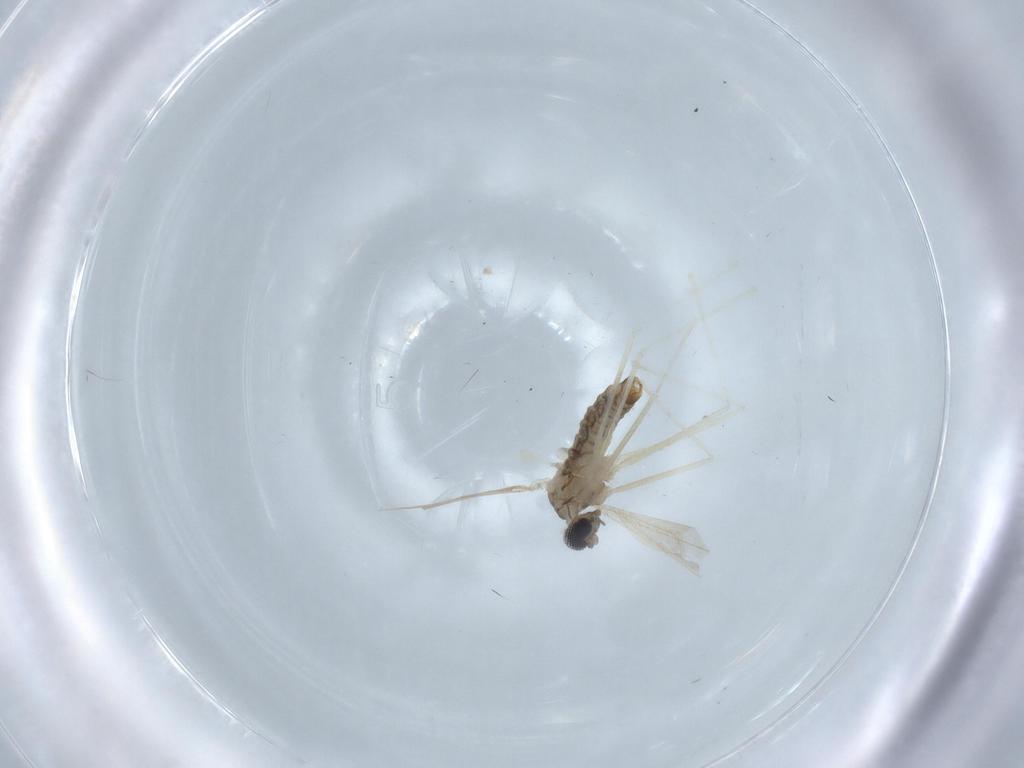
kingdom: Animalia
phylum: Arthropoda
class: Insecta
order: Diptera
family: Cecidomyiidae
